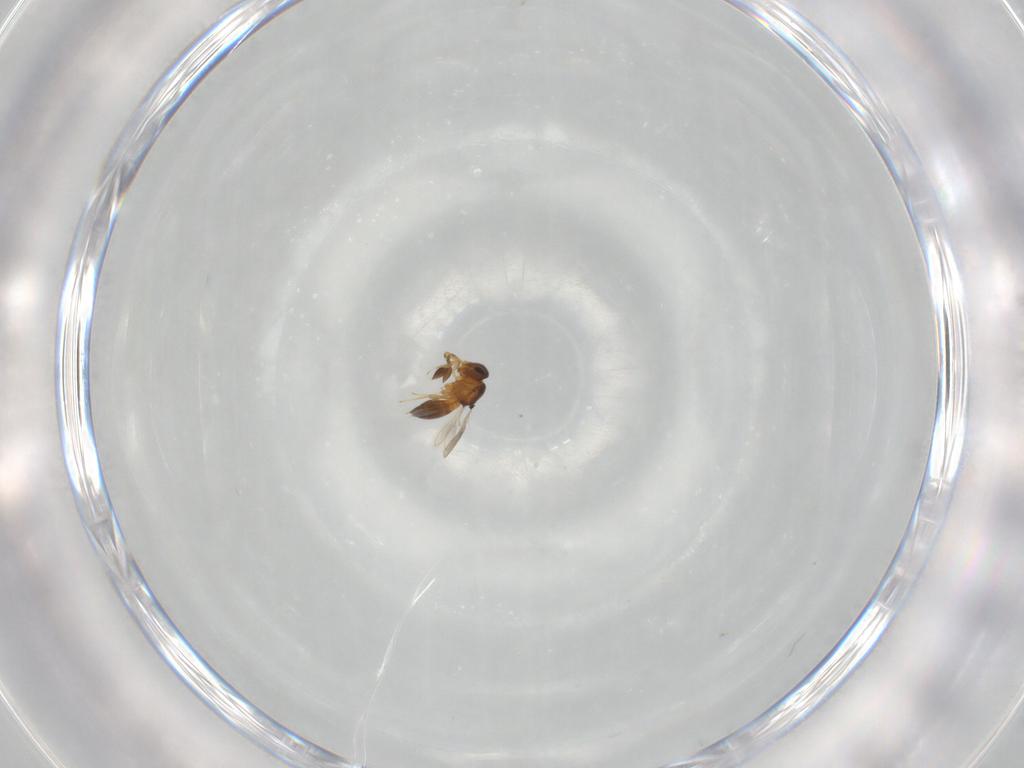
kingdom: Animalia
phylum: Arthropoda
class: Insecta
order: Hymenoptera
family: Scelionidae
